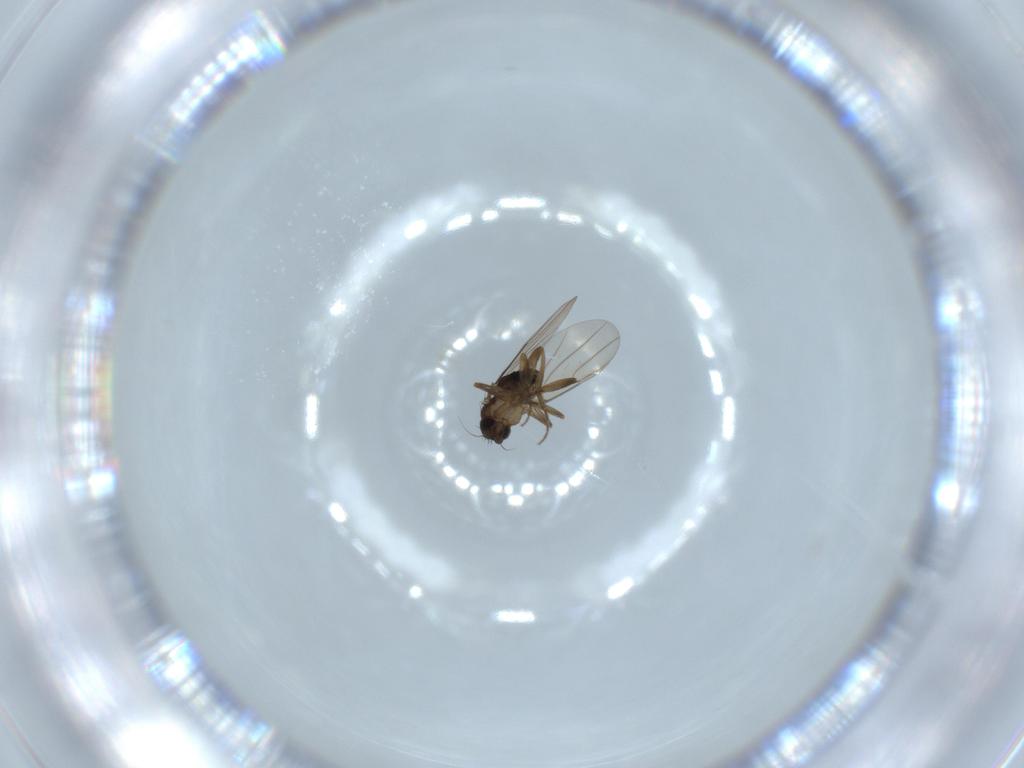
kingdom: Animalia
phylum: Arthropoda
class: Insecta
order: Diptera
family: Phoridae
